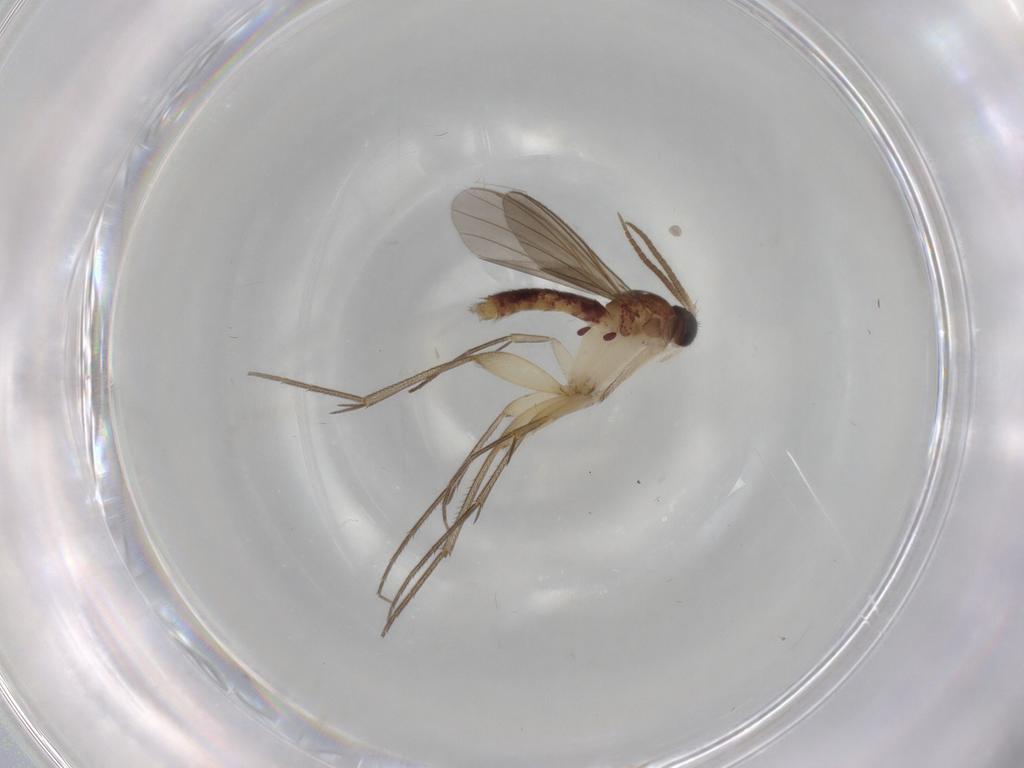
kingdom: Animalia
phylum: Arthropoda
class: Insecta
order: Diptera
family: Mycetophilidae
